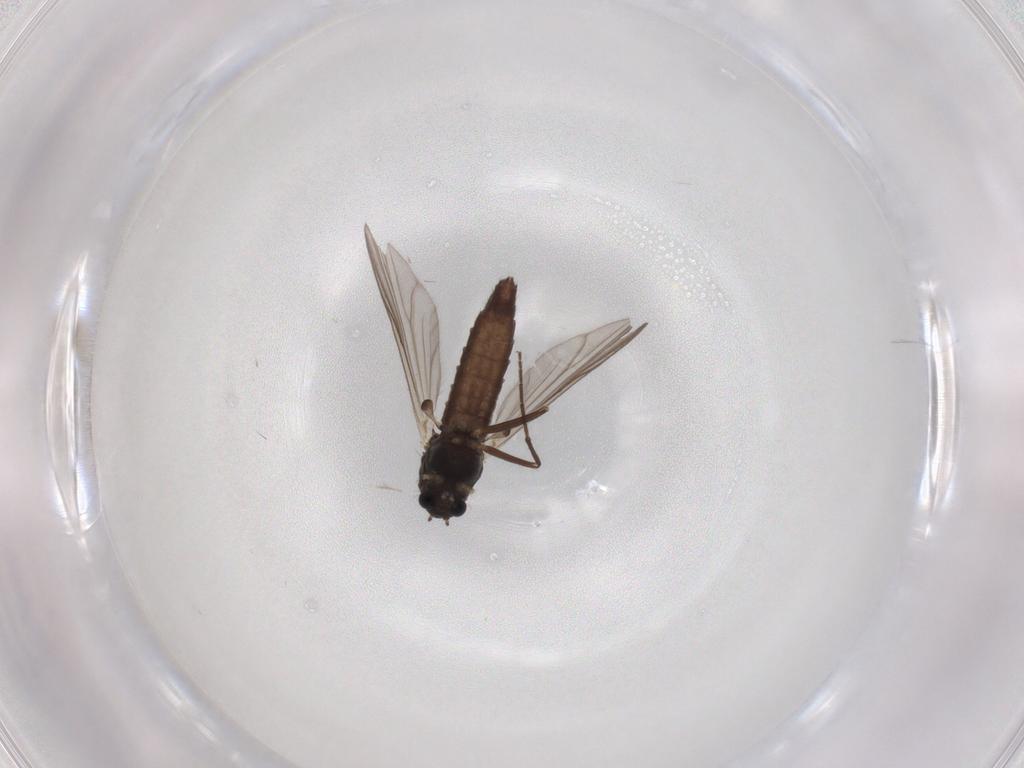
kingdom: Animalia
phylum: Arthropoda
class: Insecta
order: Diptera
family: Chironomidae
